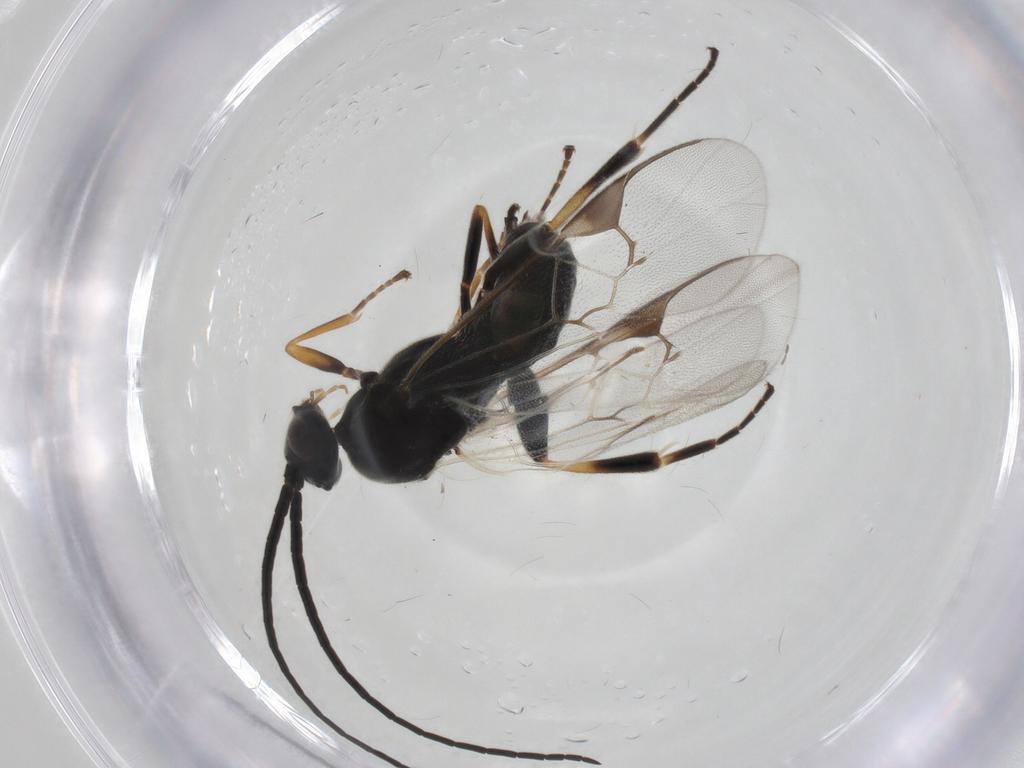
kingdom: Animalia
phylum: Arthropoda
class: Insecta
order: Hymenoptera
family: Braconidae
